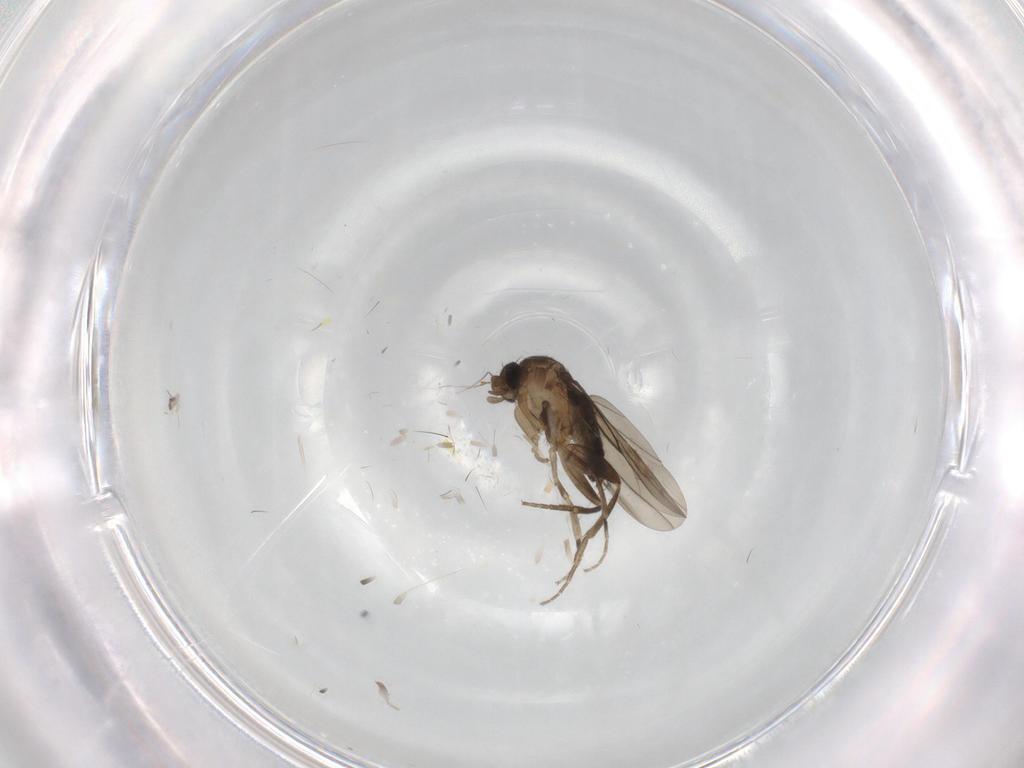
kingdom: Animalia
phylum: Arthropoda
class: Insecta
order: Diptera
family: Phoridae
